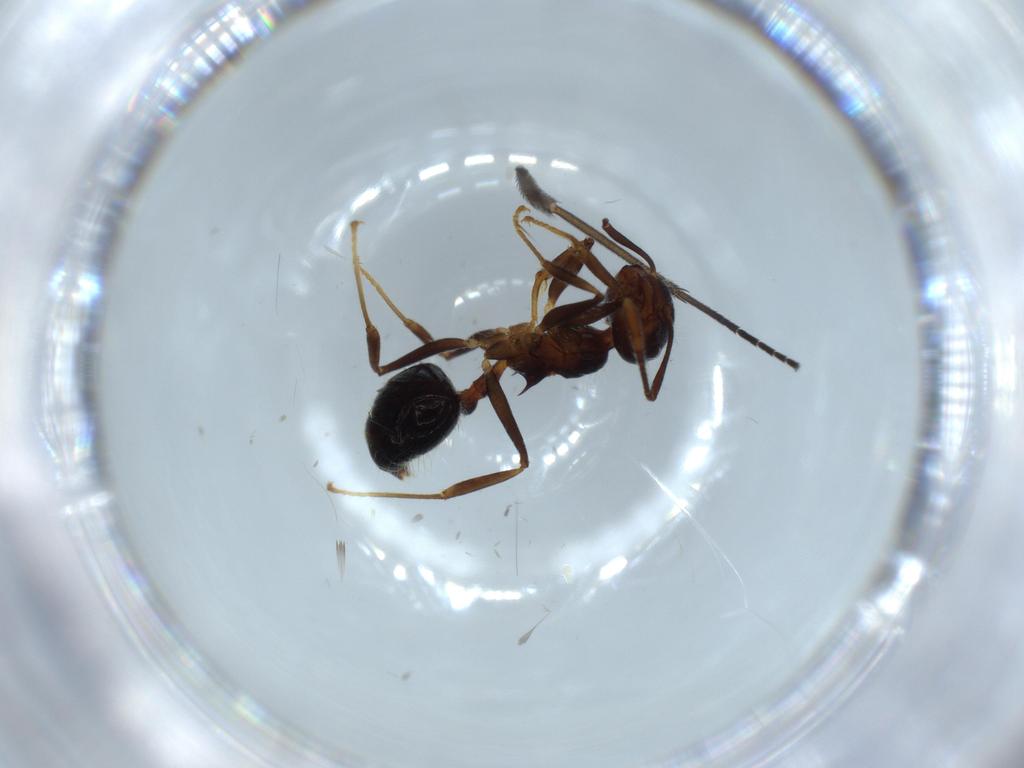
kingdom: Animalia
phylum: Arthropoda
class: Insecta
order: Hymenoptera
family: Formicidae
